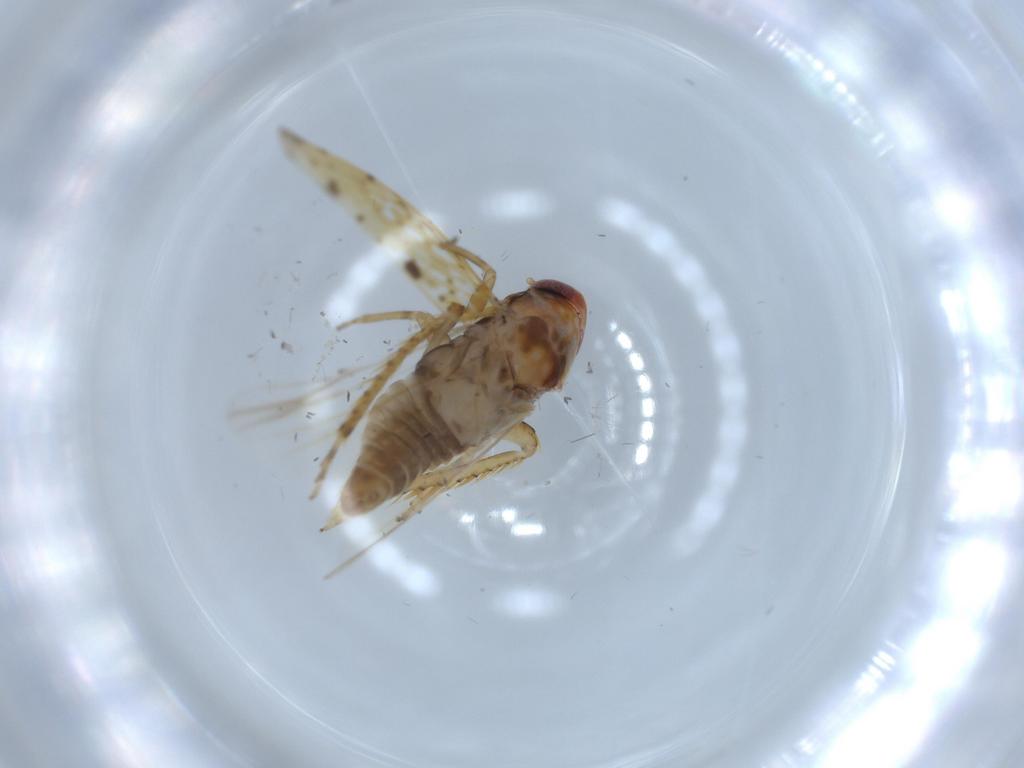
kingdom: Animalia
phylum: Arthropoda
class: Insecta
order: Hemiptera
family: Cicadellidae
